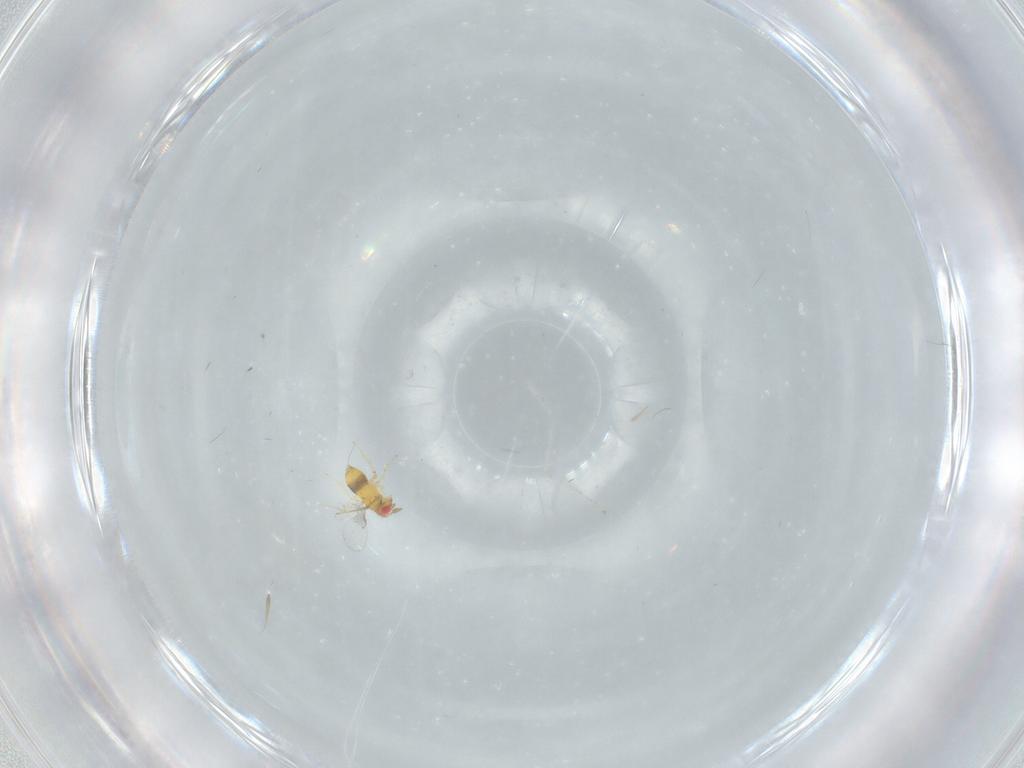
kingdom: Animalia
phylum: Arthropoda
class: Insecta
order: Hymenoptera
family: Trichogrammatidae
